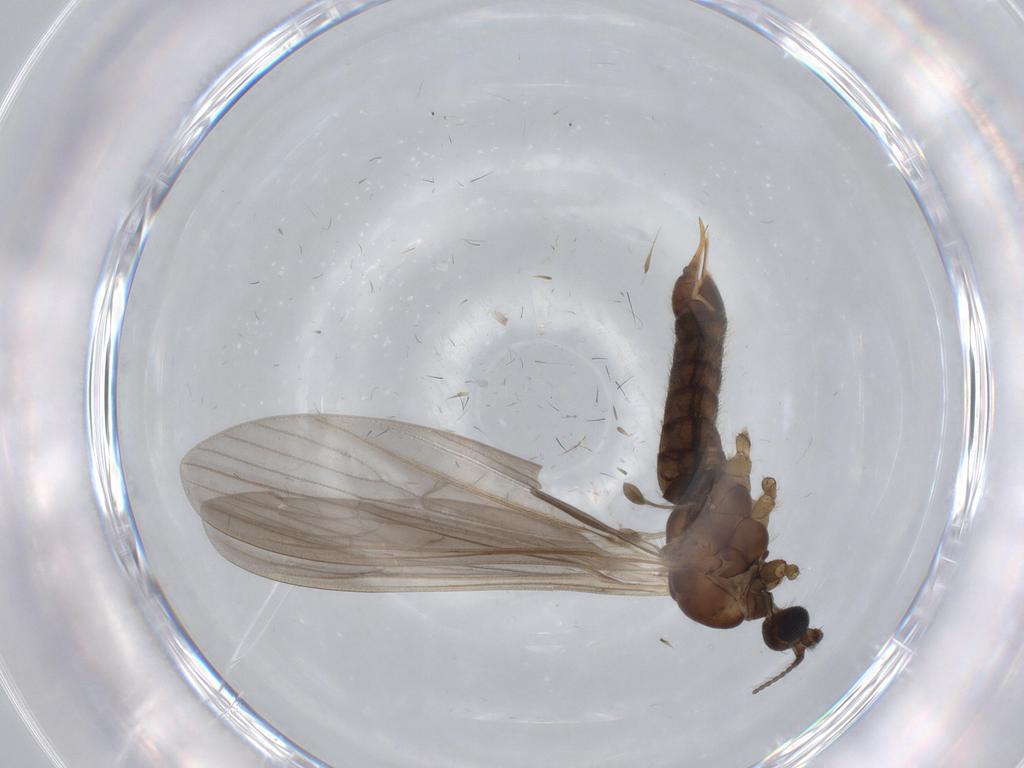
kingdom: Animalia
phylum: Arthropoda
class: Insecta
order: Diptera
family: Limoniidae
